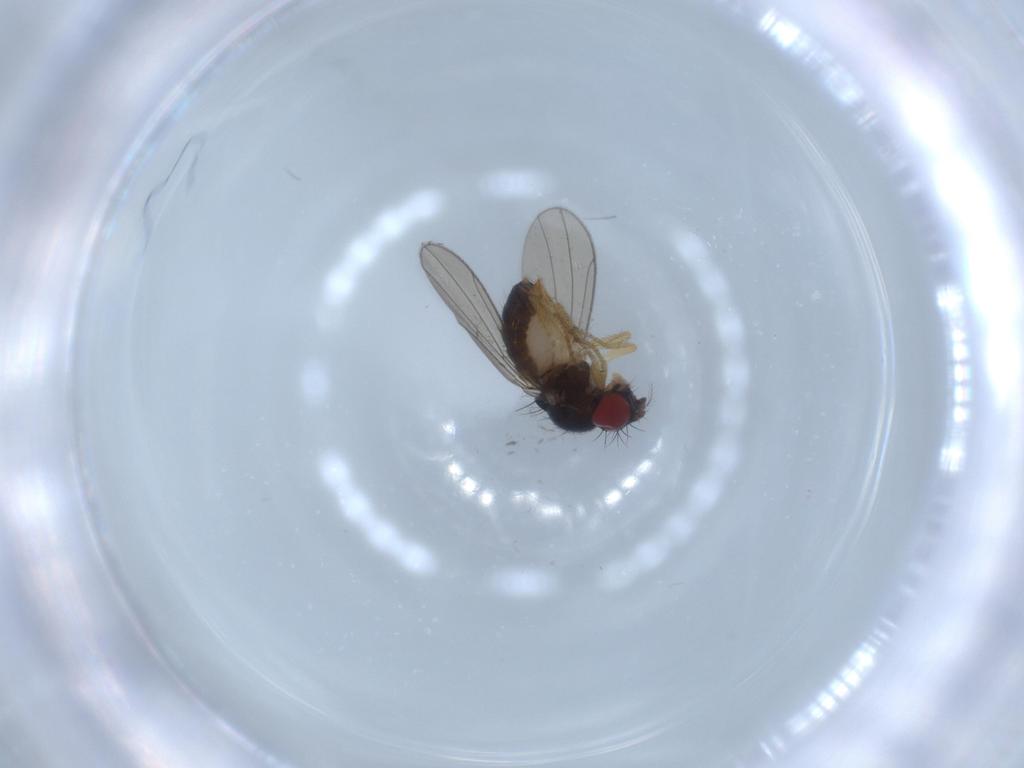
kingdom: Animalia
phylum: Arthropoda
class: Insecta
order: Diptera
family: Drosophilidae
